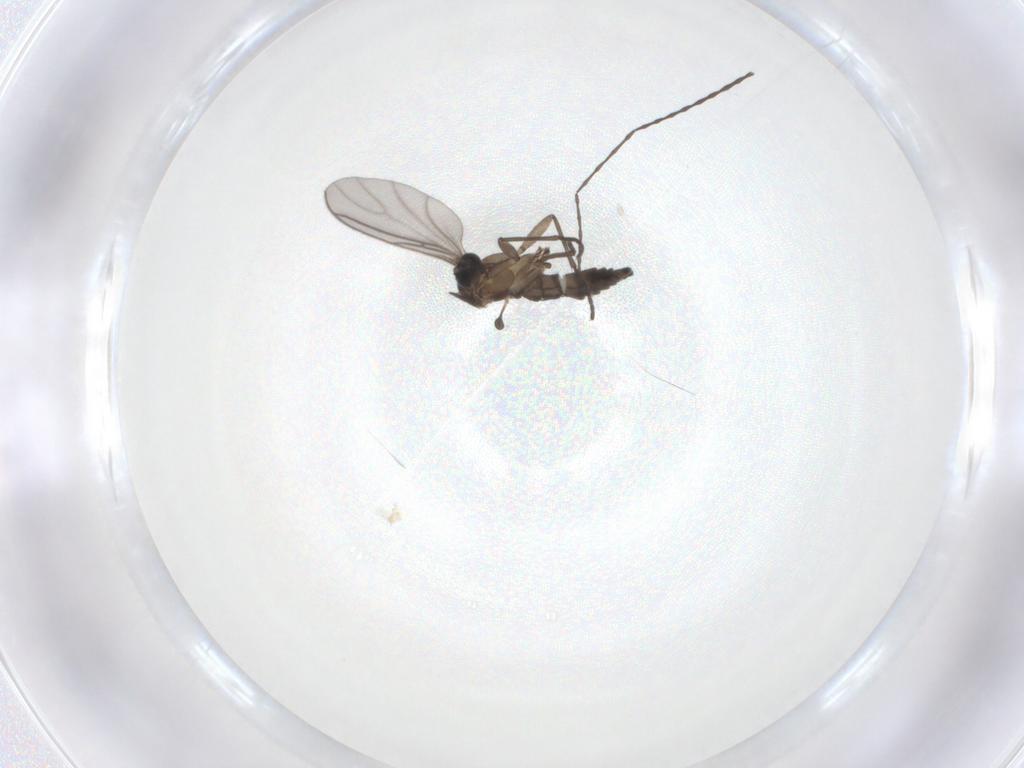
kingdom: Animalia
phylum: Arthropoda
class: Insecta
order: Diptera
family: Limoniidae
